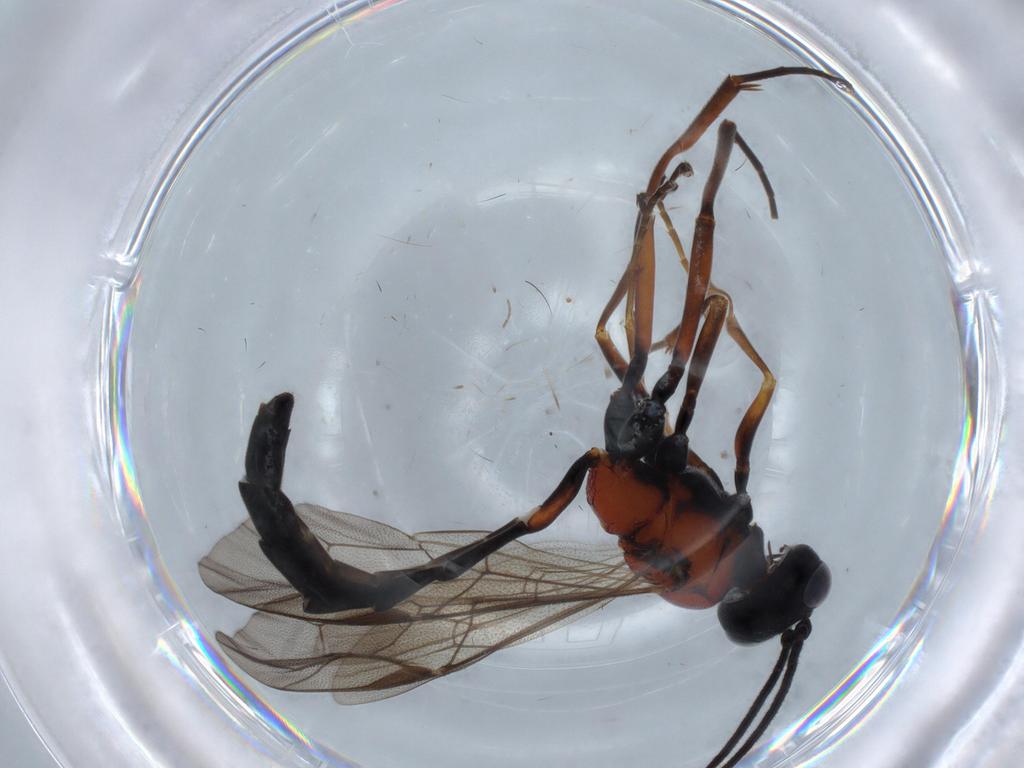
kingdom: Animalia
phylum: Arthropoda
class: Insecta
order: Hymenoptera
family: Ichneumonidae
